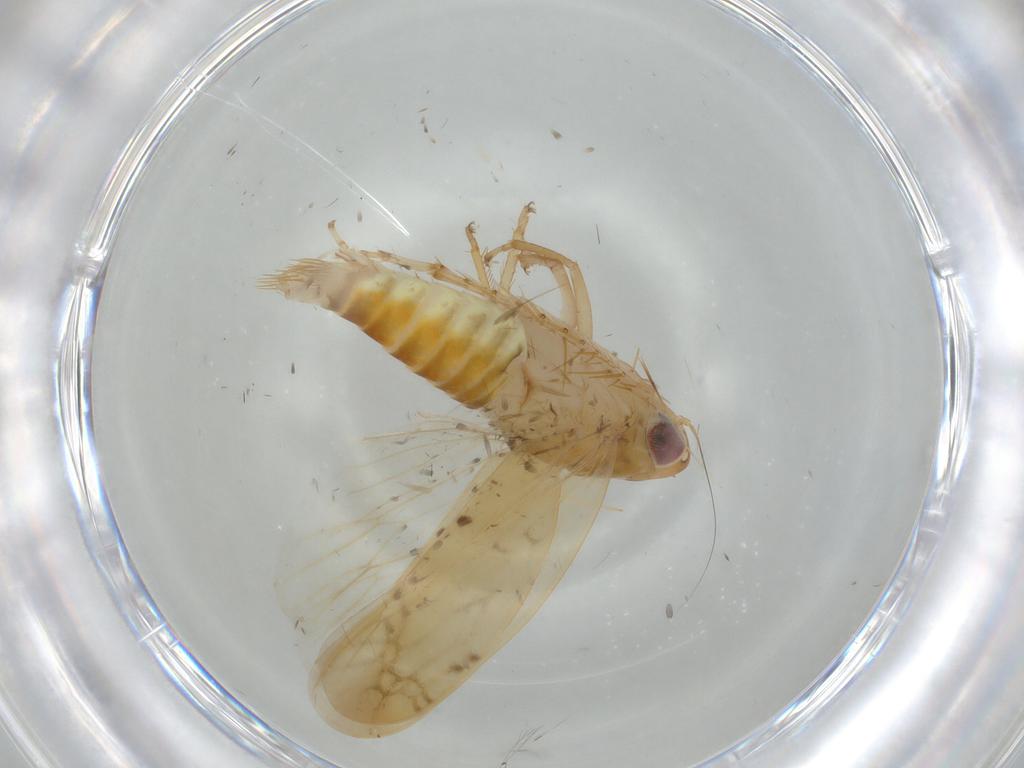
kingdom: Animalia
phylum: Arthropoda
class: Insecta
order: Hemiptera
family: Cicadellidae
